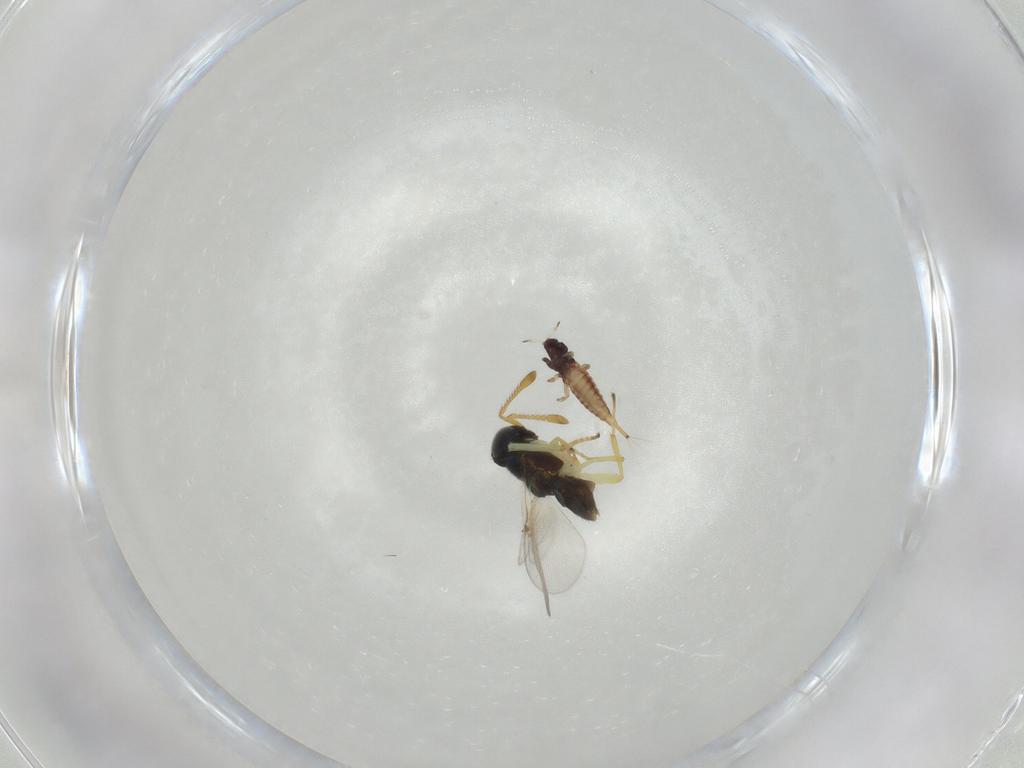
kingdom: Animalia
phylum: Arthropoda
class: Insecta
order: Thysanoptera
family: Phlaeothripidae
